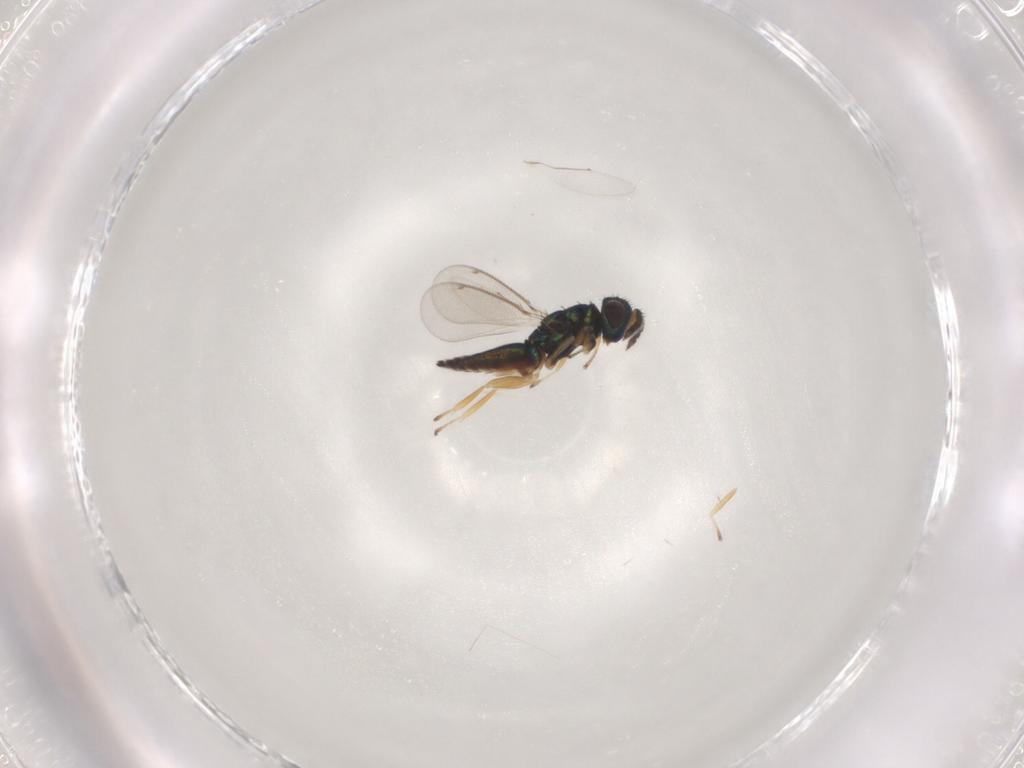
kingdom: Animalia
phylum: Arthropoda
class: Insecta
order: Hymenoptera
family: Eulophidae
